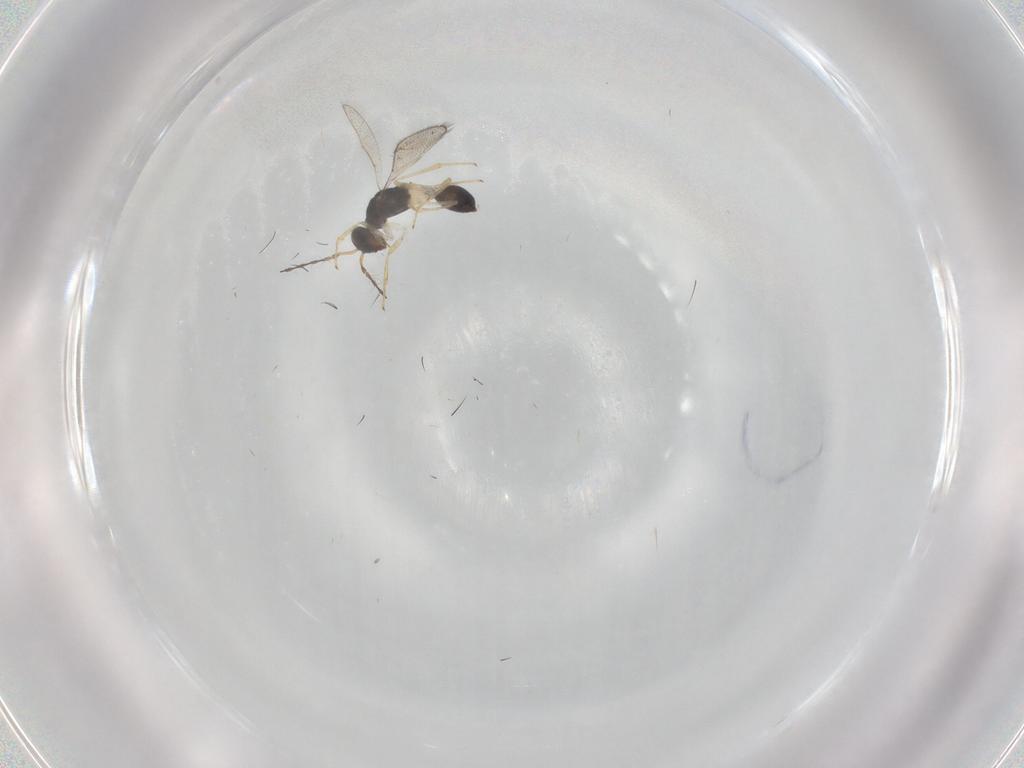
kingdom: Animalia
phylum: Arthropoda
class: Insecta
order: Hymenoptera
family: Diparidae
